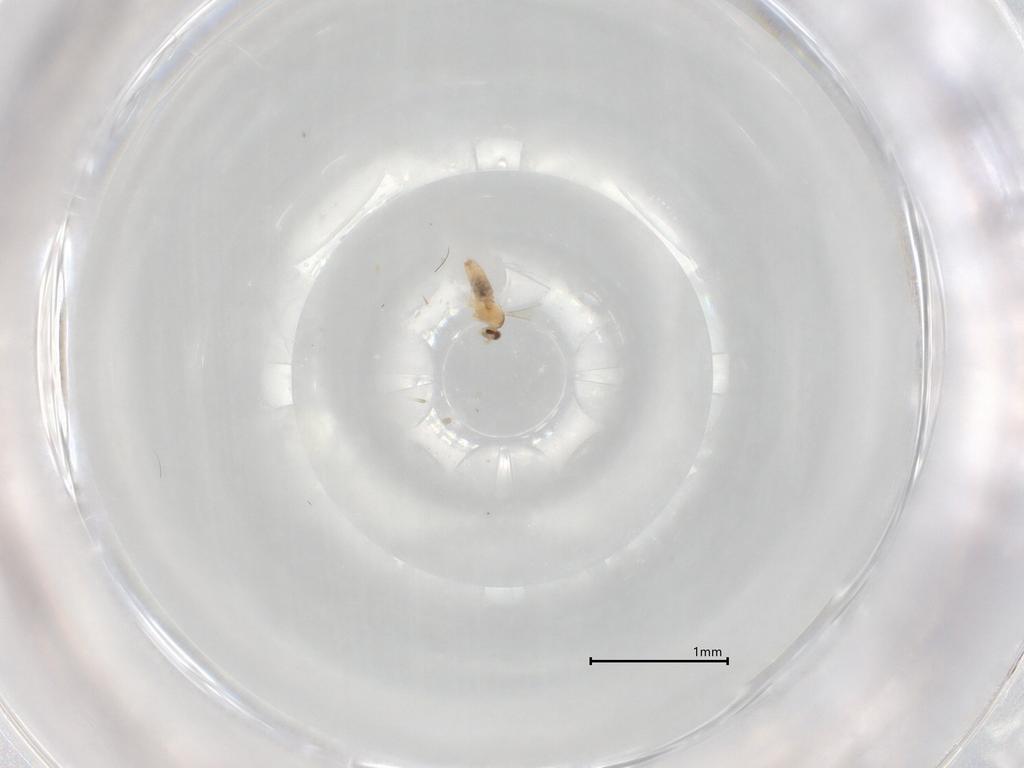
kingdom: Animalia
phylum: Arthropoda
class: Insecta
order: Diptera
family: Cecidomyiidae
